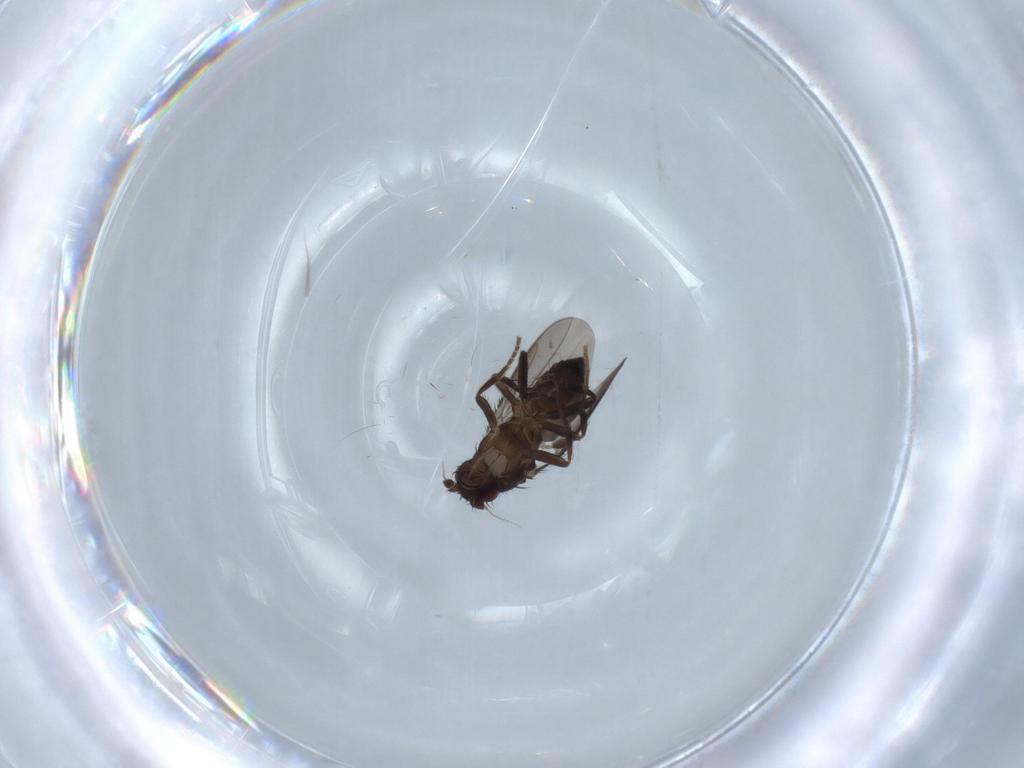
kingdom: Animalia
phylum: Arthropoda
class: Insecta
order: Diptera
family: Sphaeroceridae
